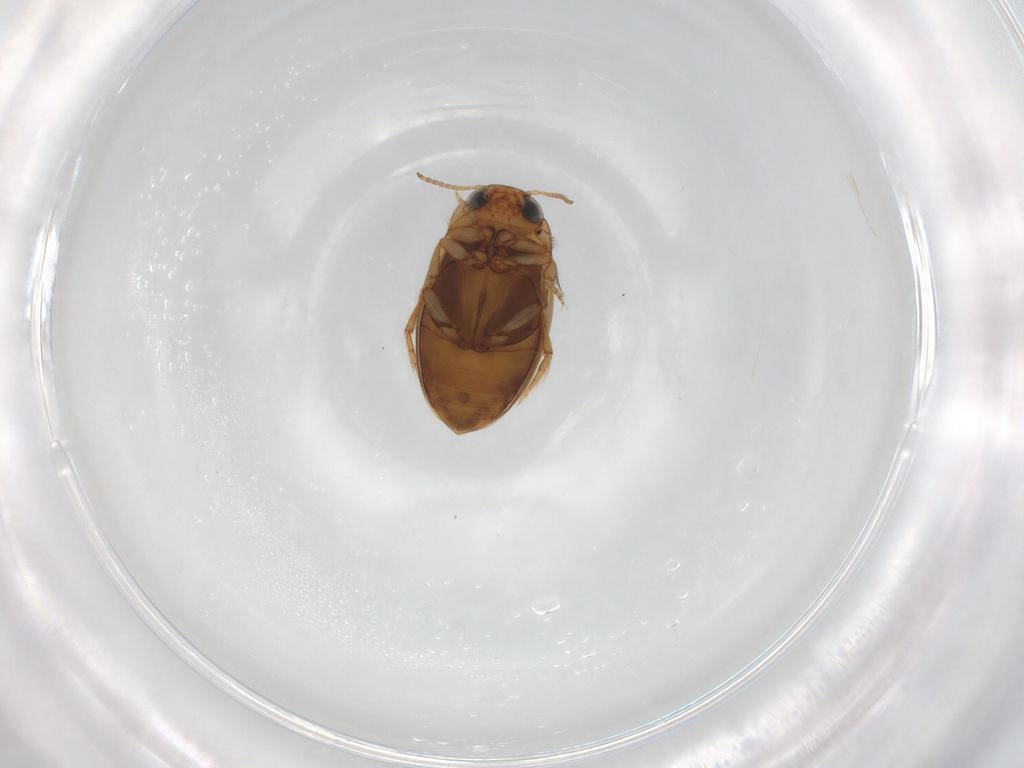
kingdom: Animalia
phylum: Arthropoda
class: Insecta
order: Coleoptera
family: Dytiscidae
